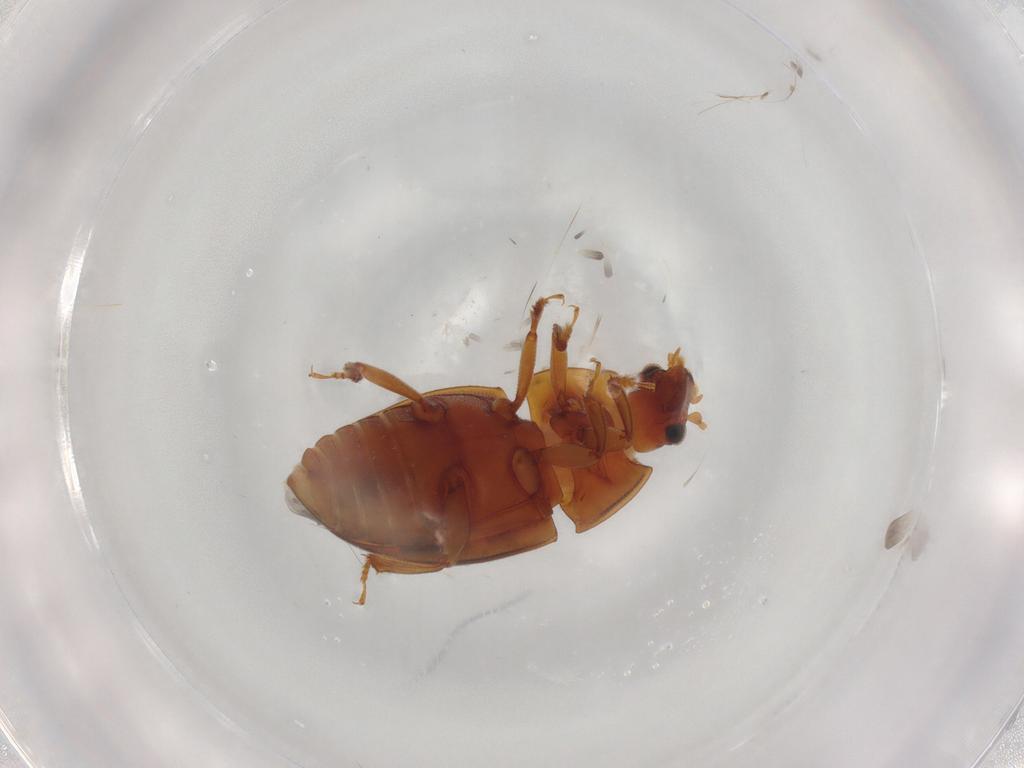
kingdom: Animalia
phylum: Arthropoda
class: Insecta
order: Coleoptera
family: Nitidulidae
